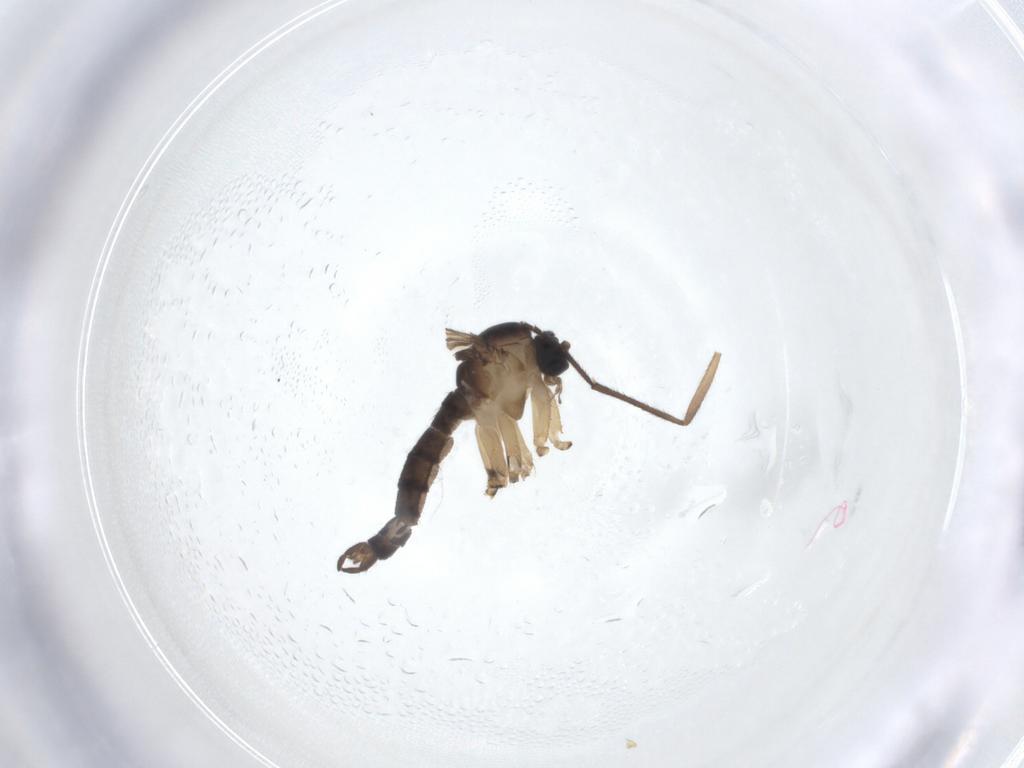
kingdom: Animalia
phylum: Arthropoda
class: Insecta
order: Diptera
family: Sciaridae
